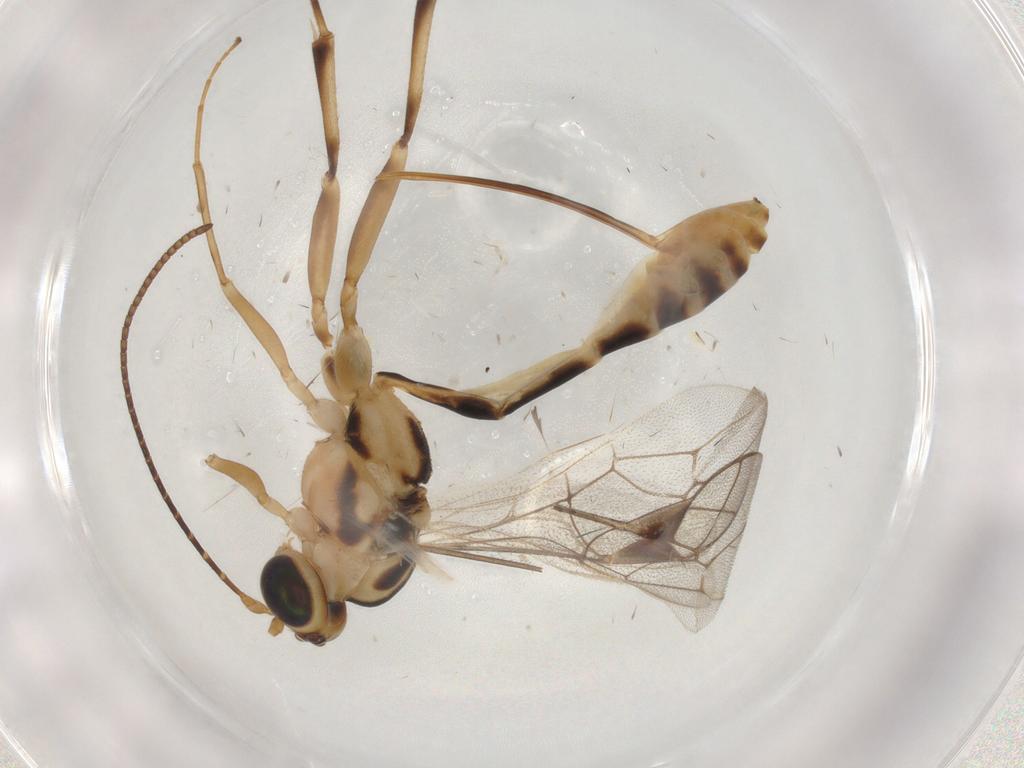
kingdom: Animalia
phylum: Arthropoda
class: Insecta
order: Hymenoptera
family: Ichneumonidae
